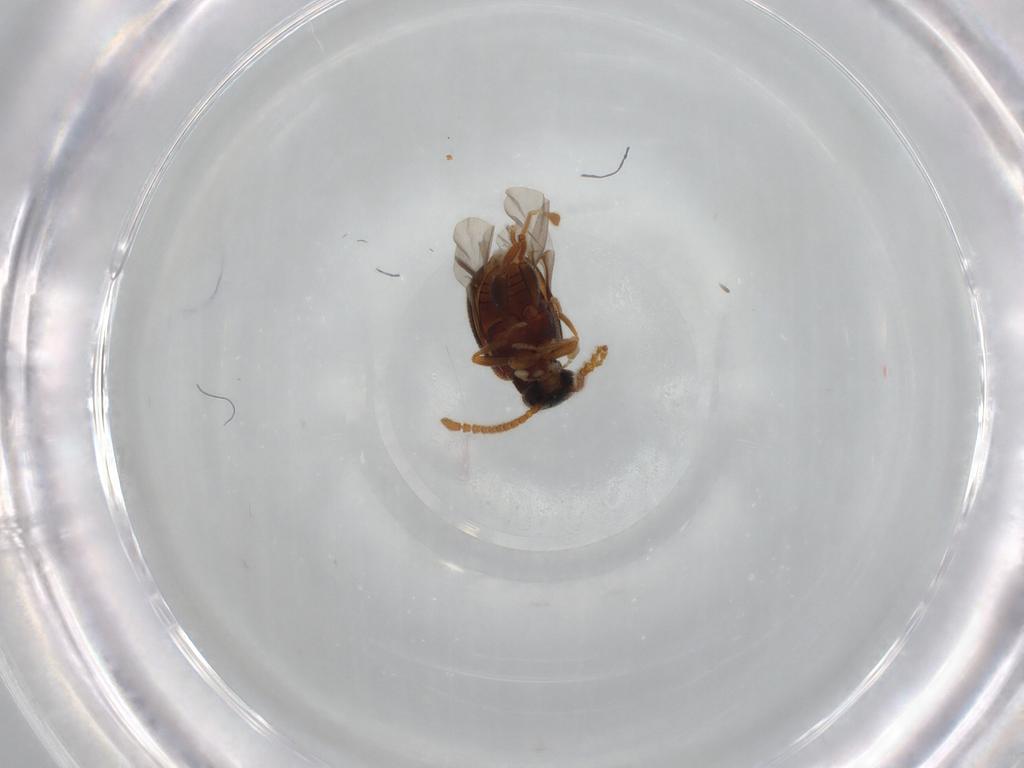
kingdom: Animalia
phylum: Arthropoda
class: Insecta
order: Coleoptera
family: Aderidae
